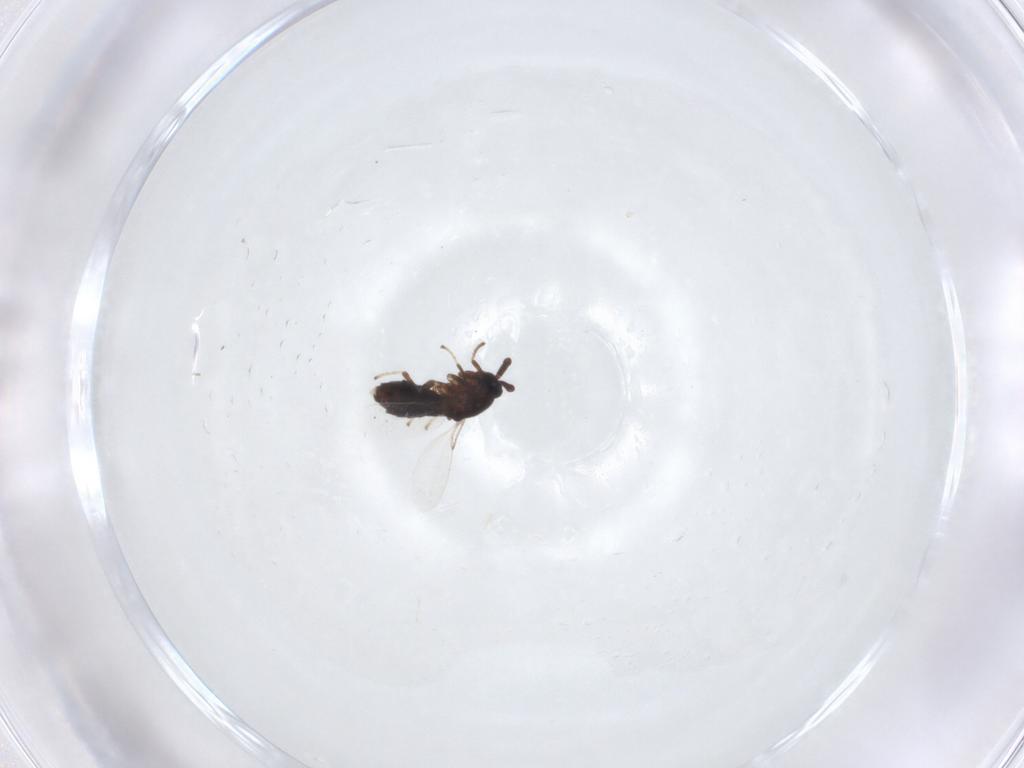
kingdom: Animalia
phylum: Arthropoda
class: Insecta
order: Diptera
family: Scatopsidae
